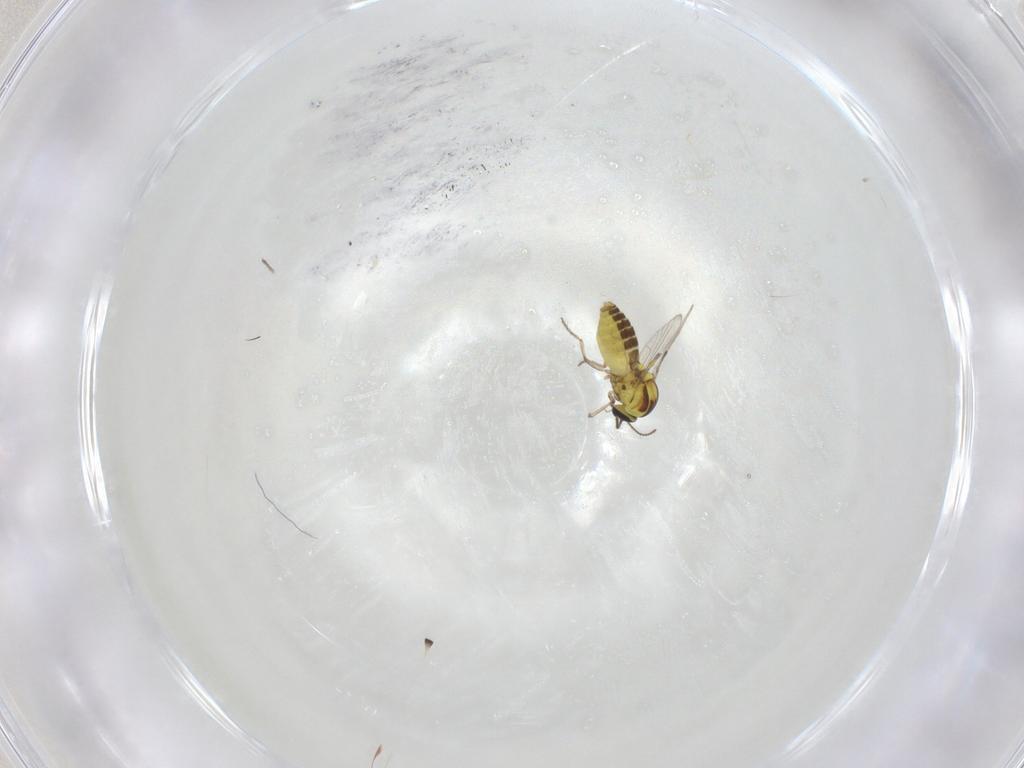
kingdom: Animalia
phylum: Arthropoda
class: Insecta
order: Diptera
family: Ceratopogonidae
